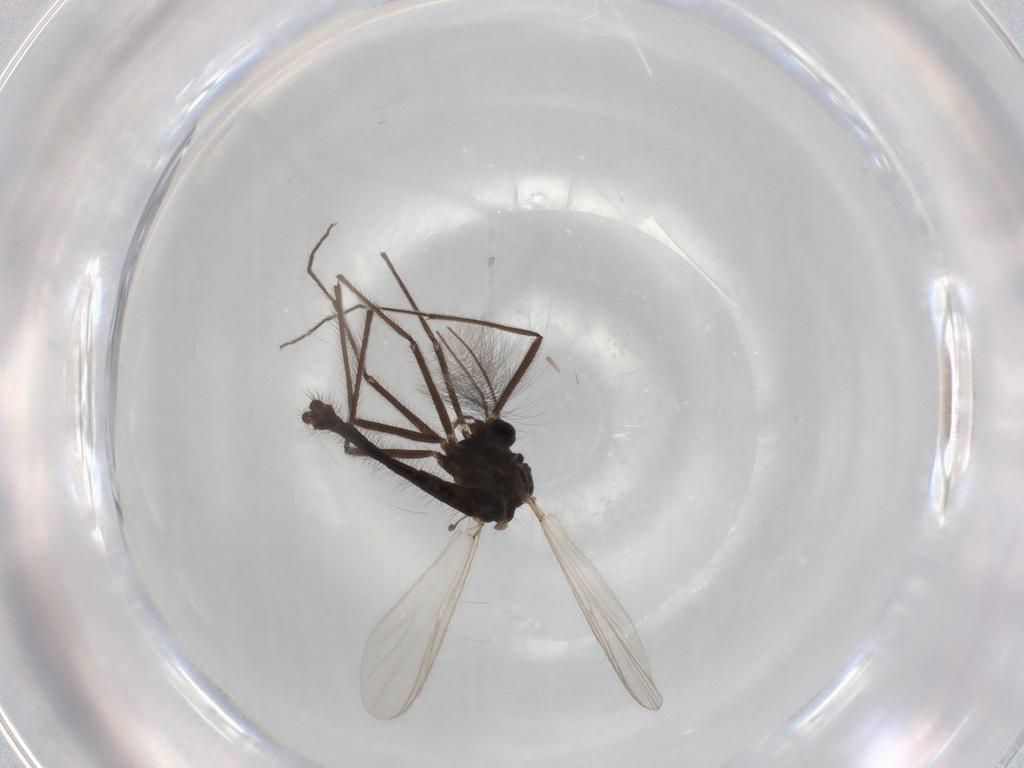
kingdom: Animalia
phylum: Arthropoda
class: Insecta
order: Diptera
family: Chironomidae
